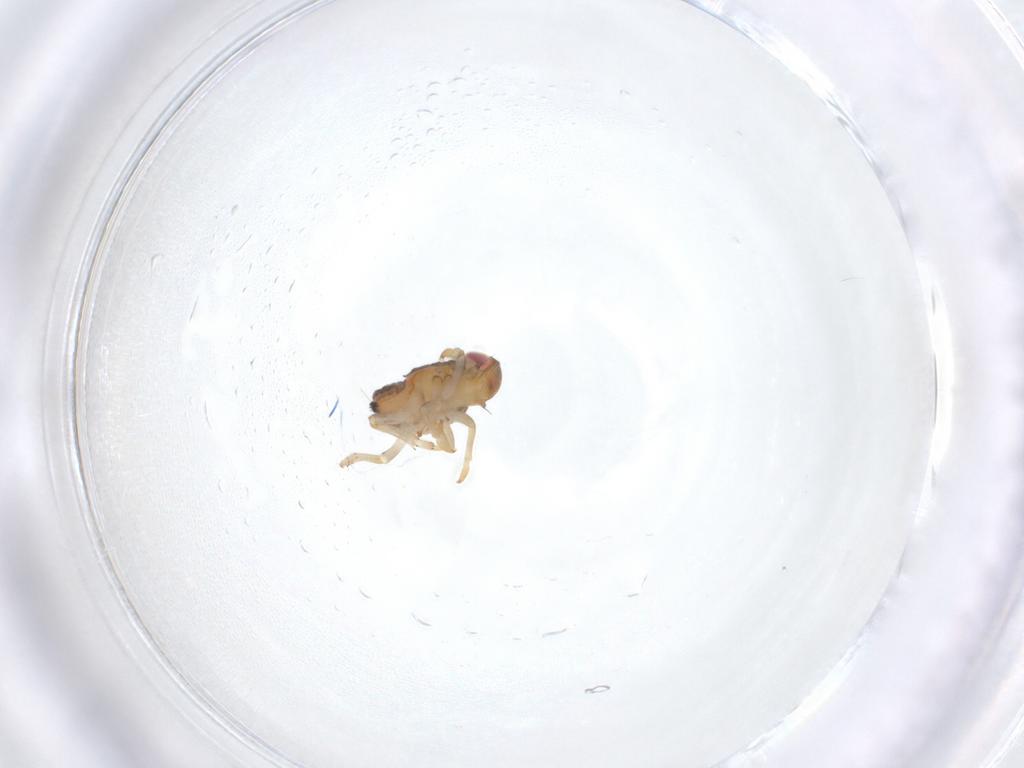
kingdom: Animalia
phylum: Arthropoda
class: Insecta
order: Hemiptera
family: Issidae
